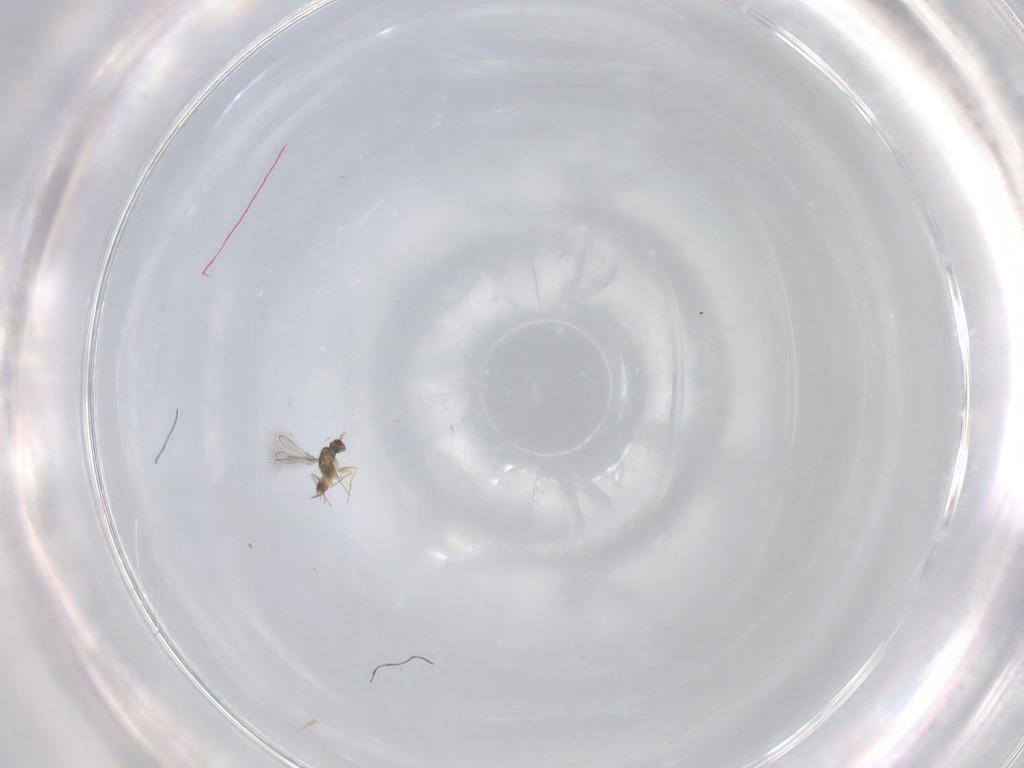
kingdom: Animalia
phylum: Arthropoda
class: Insecta
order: Hymenoptera
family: Mymaridae
